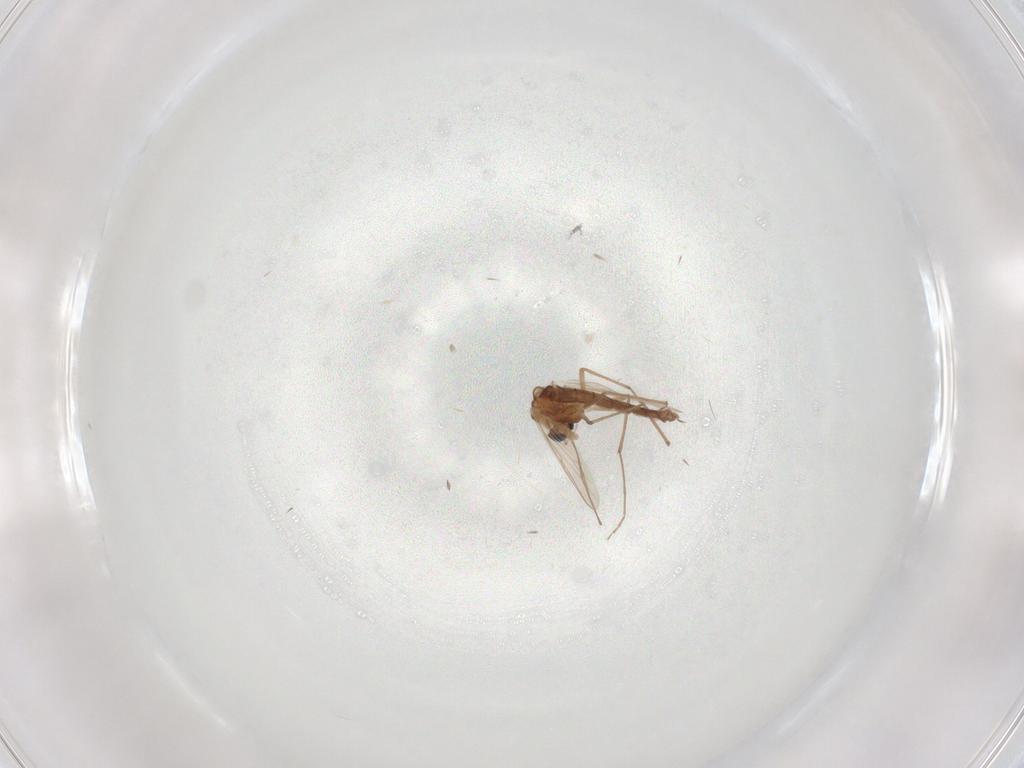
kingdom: Animalia
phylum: Arthropoda
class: Insecta
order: Diptera
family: Chironomidae
